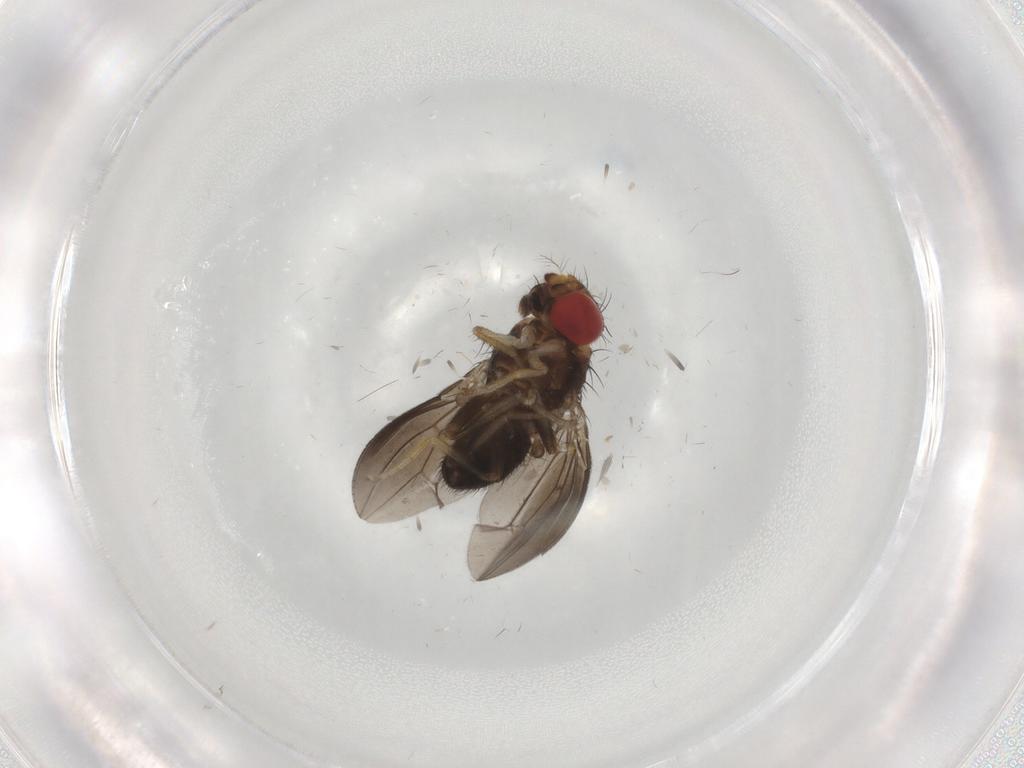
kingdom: Animalia
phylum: Arthropoda
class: Insecta
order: Diptera
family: Psychodidae
